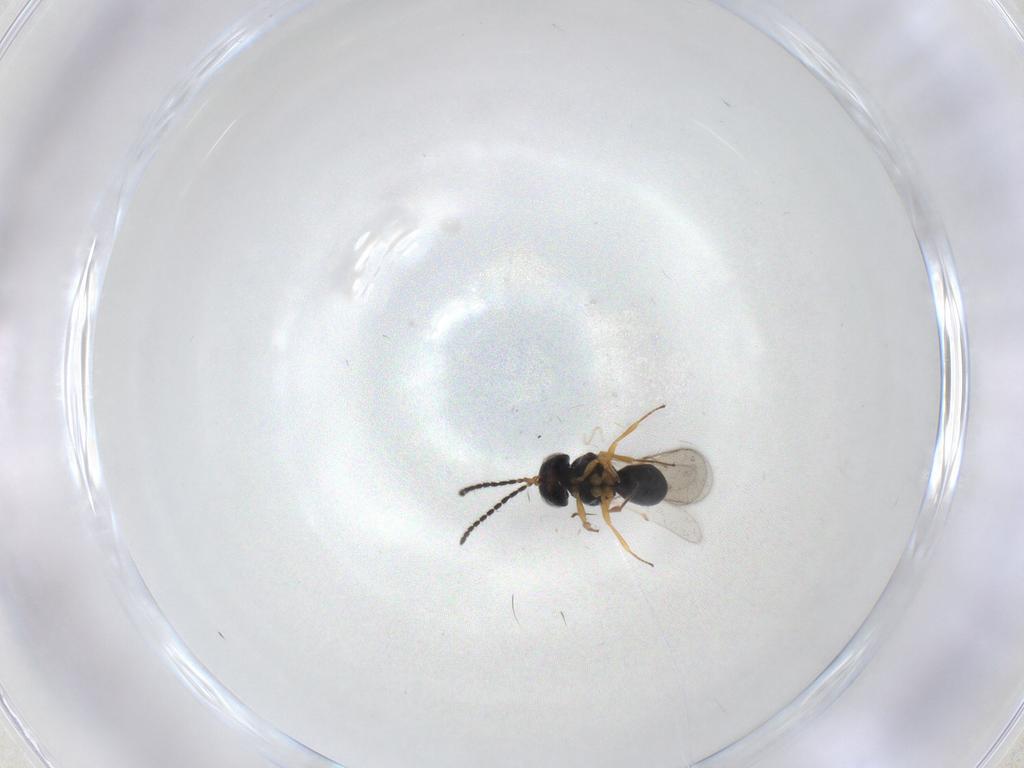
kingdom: Animalia
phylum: Arthropoda
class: Insecta
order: Hymenoptera
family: Scelionidae
